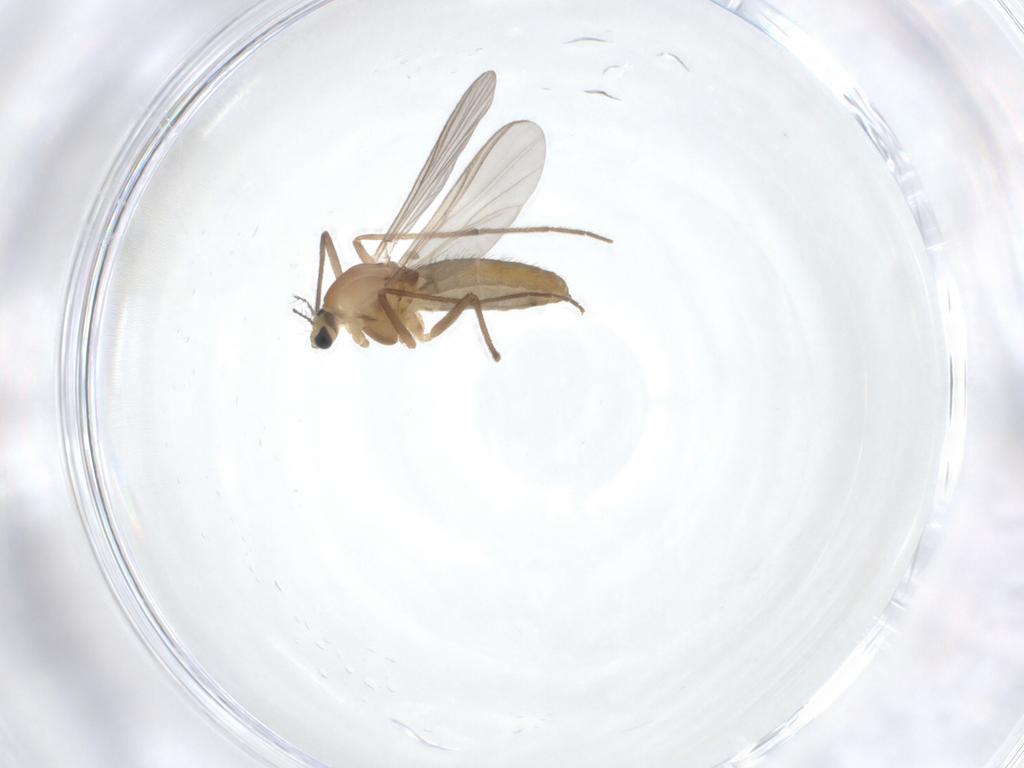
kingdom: Animalia
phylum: Arthropoda
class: Insecta
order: Diptera
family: Chironomidae
